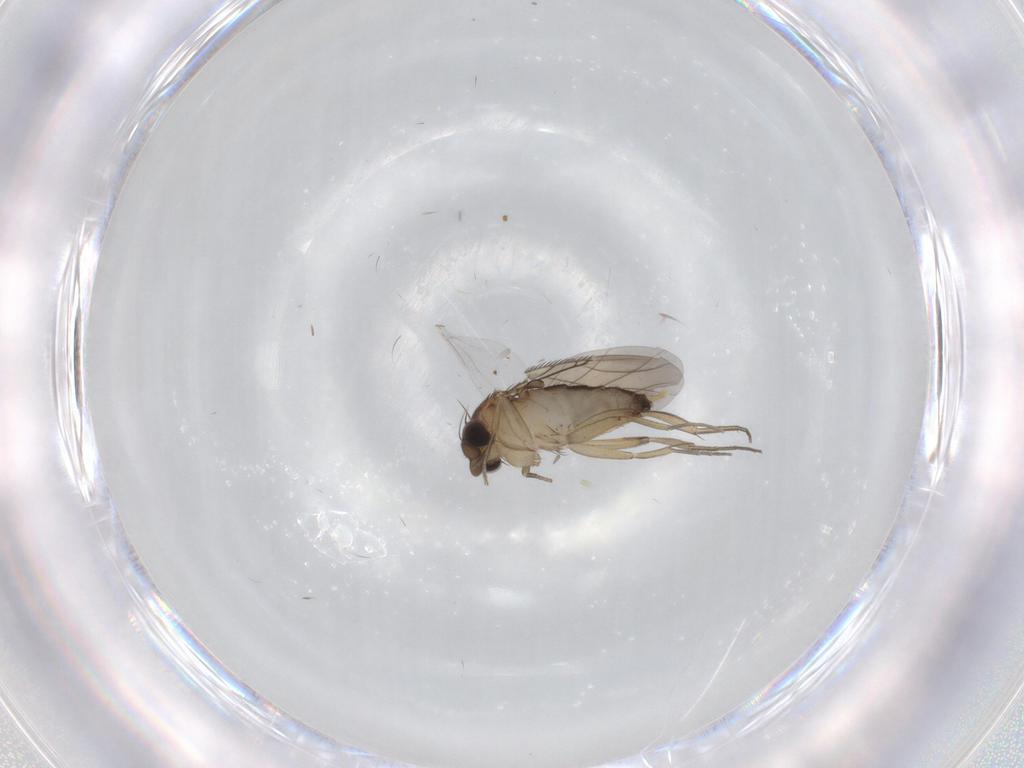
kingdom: Animalia
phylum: Arthropoda
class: Insecta
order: Diptera
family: Phoridae
